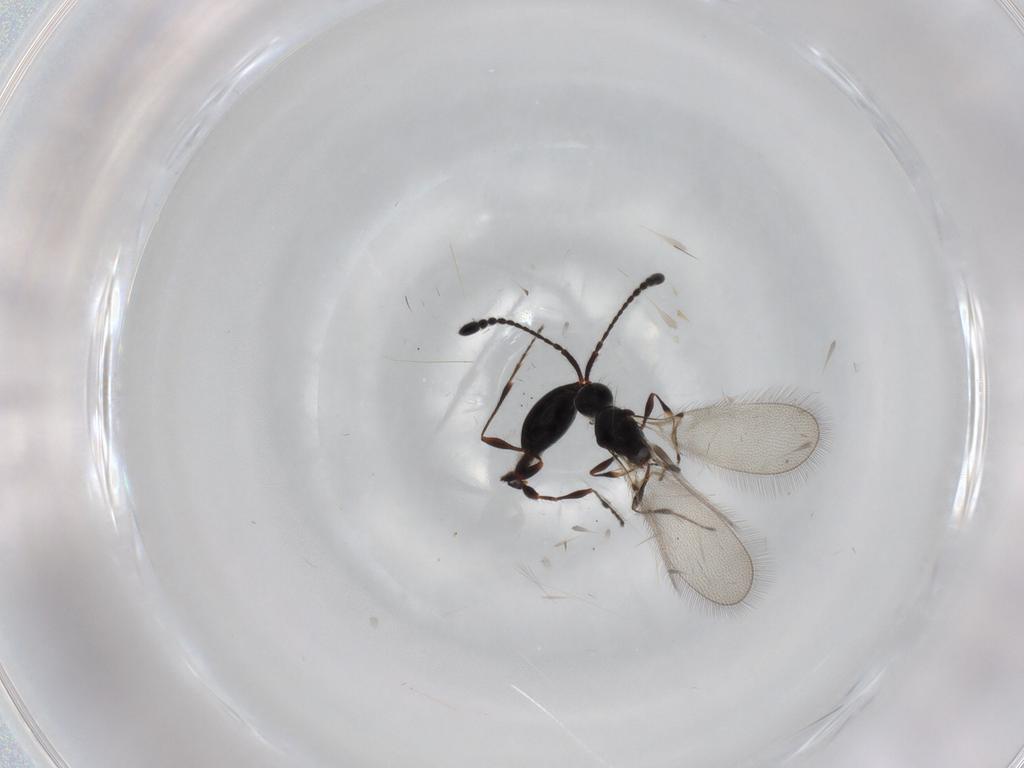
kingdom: Animalia
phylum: Arthropoda
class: Insecta
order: Hymenoptera
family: Diapriidae
